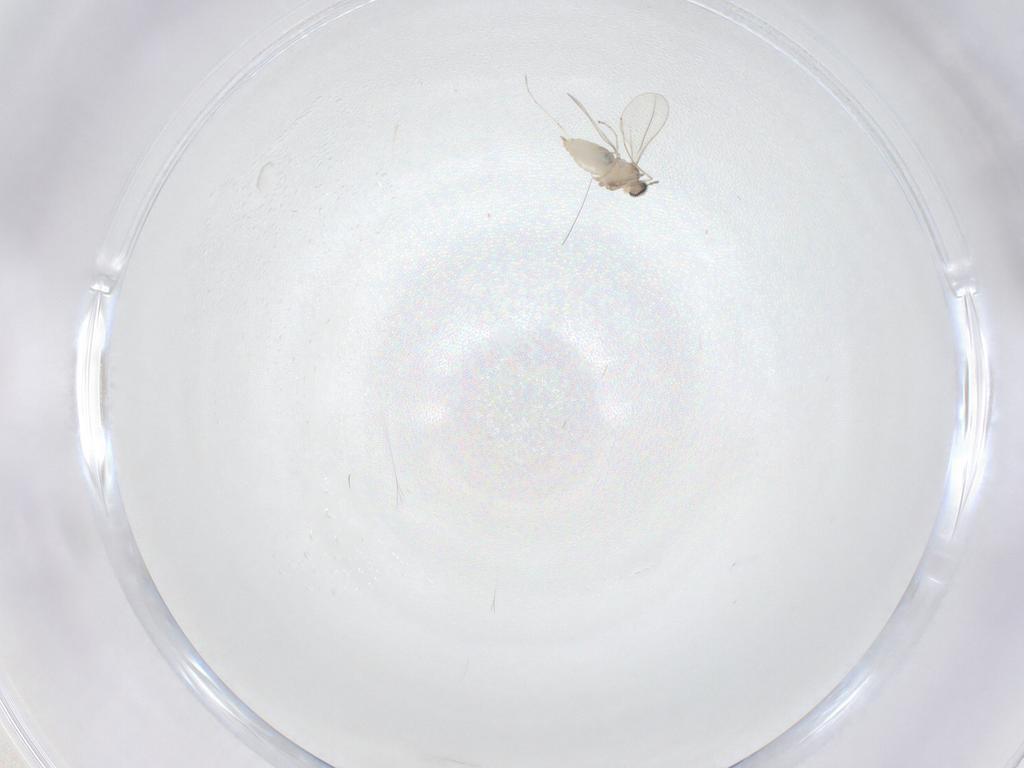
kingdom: Animalia
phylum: Arthropoda
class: Insecta
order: Diptera
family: Cecidomyiidae
